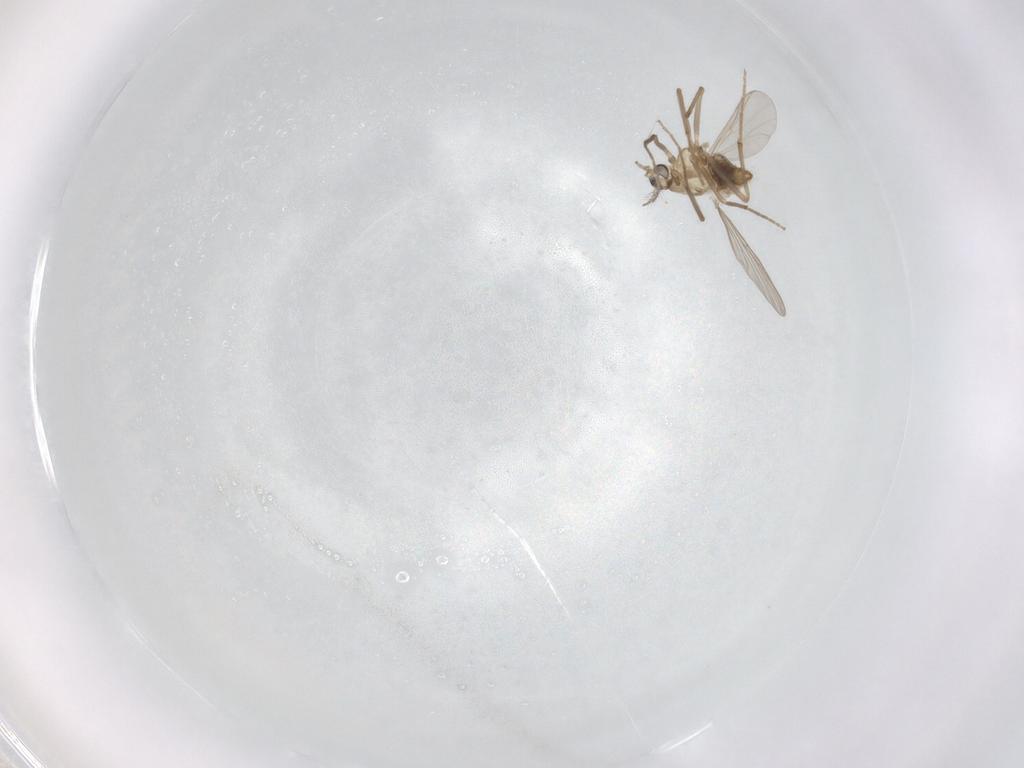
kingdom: Animalia
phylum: Arthropoda
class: Insecta
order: Diptera
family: Chironomidae
